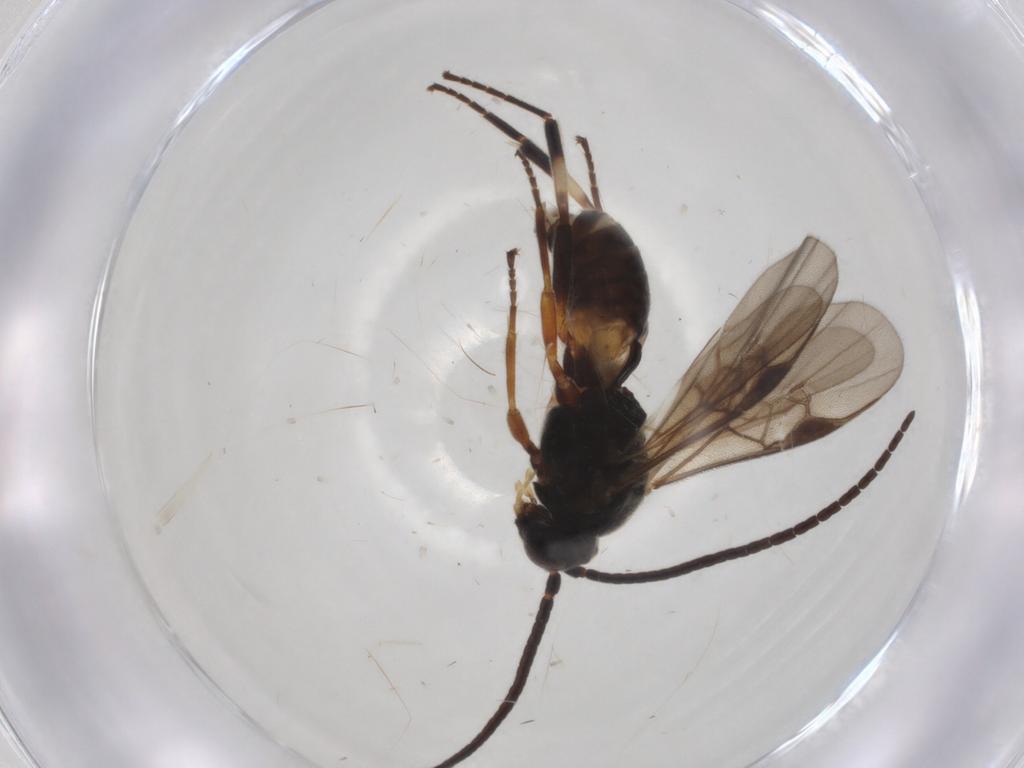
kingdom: Animalia
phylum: Arthropoda
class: Insecta
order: Hymenoptera
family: Braconidae
